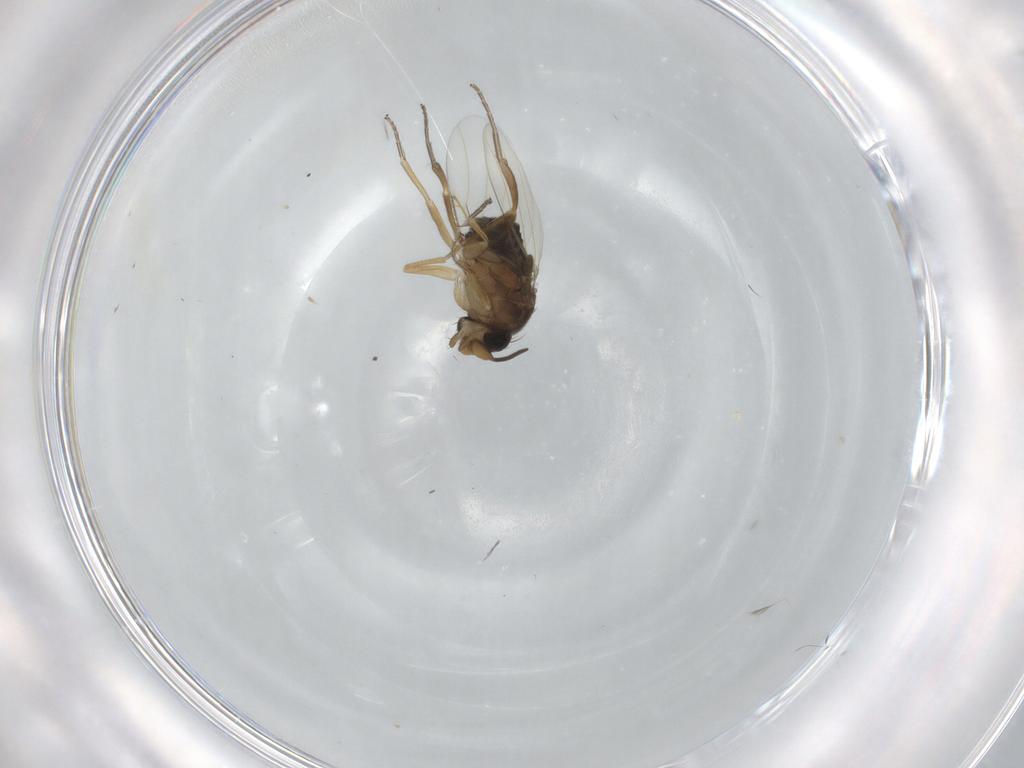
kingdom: Animalia
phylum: Arthropoda
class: Insecta
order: Diptera
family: Phoridae
